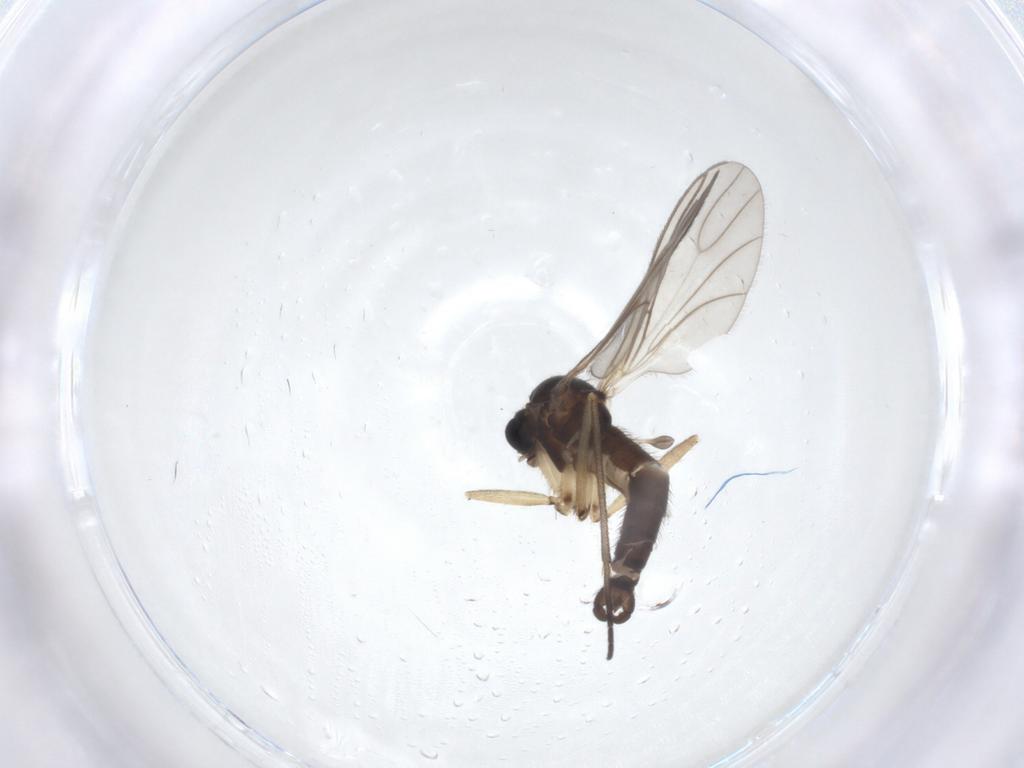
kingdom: Animalia
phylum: Arthropoda
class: Insecta
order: Diptera
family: Sciaridae
